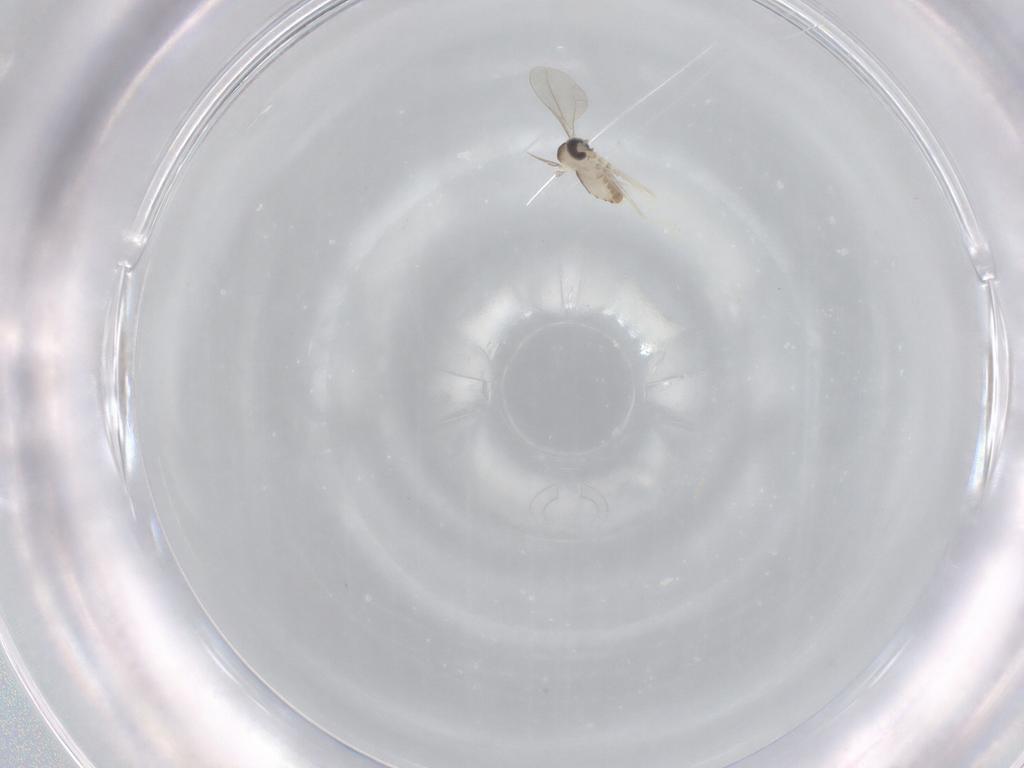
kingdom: Animalia
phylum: Arthropoda
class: Insecta
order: Diptera
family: Cecidomyiidae
